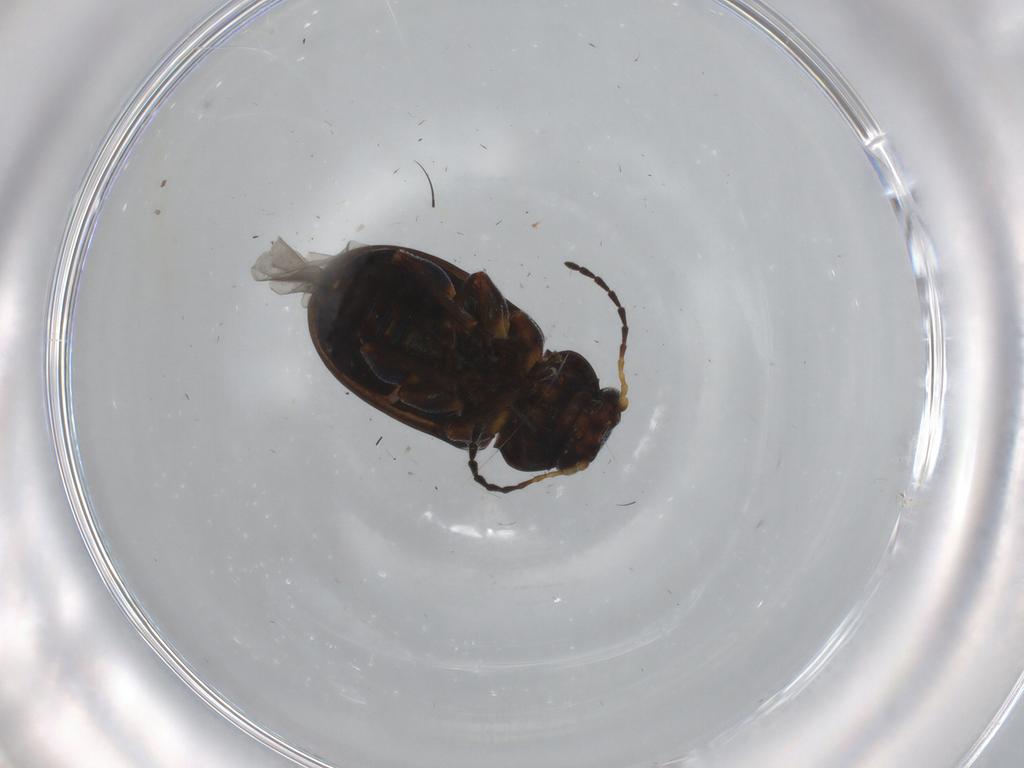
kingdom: Animalia
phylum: Arthropoda
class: Insecta
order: Coleoptera
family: Chrysomelidae
